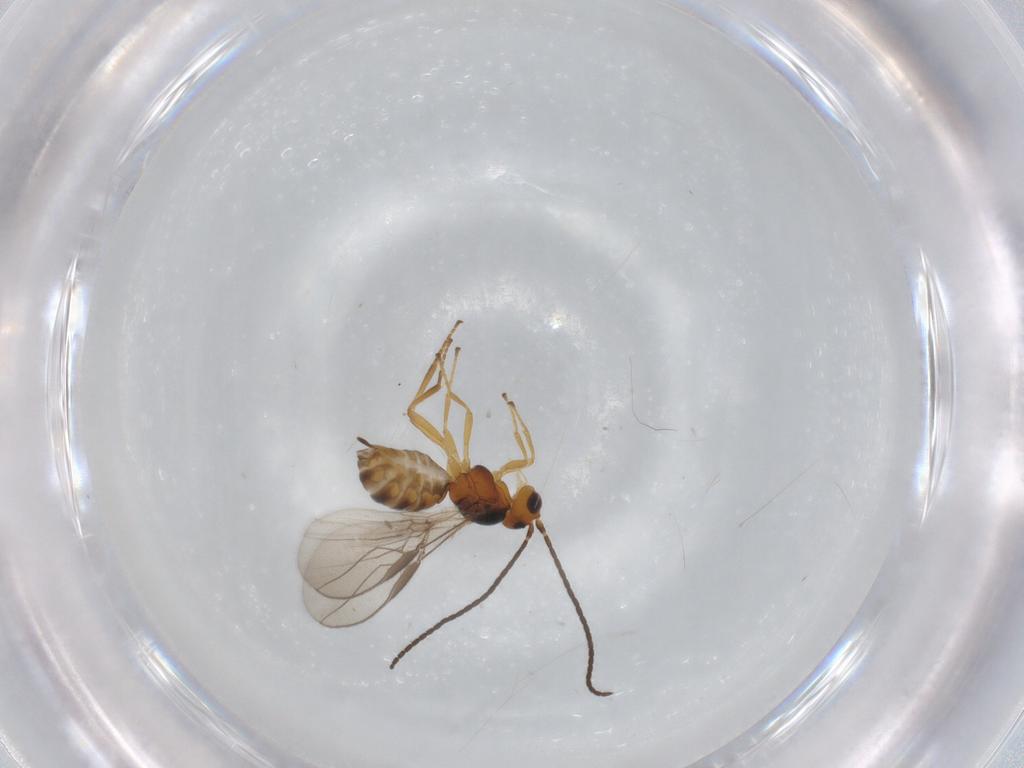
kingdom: Animalia
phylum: Arthropoda
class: Insecta
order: Hymenoptera
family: Braconidae
